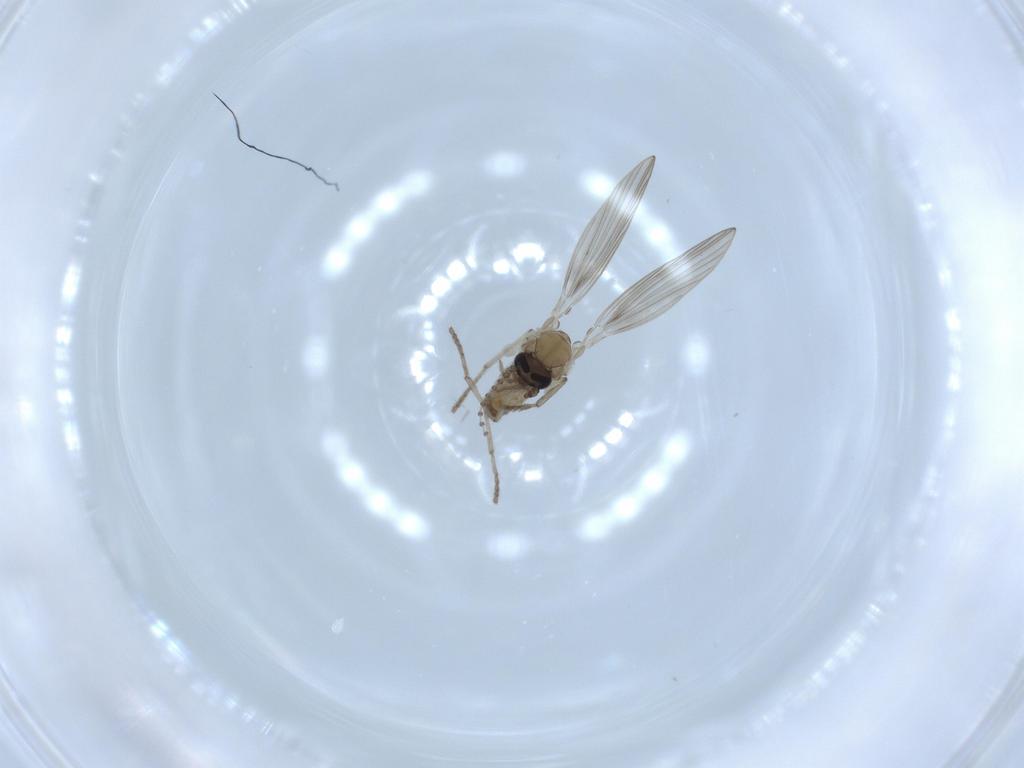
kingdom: Animalia
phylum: Arthropoda
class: Insecta
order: Diptera
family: Psychodidae
